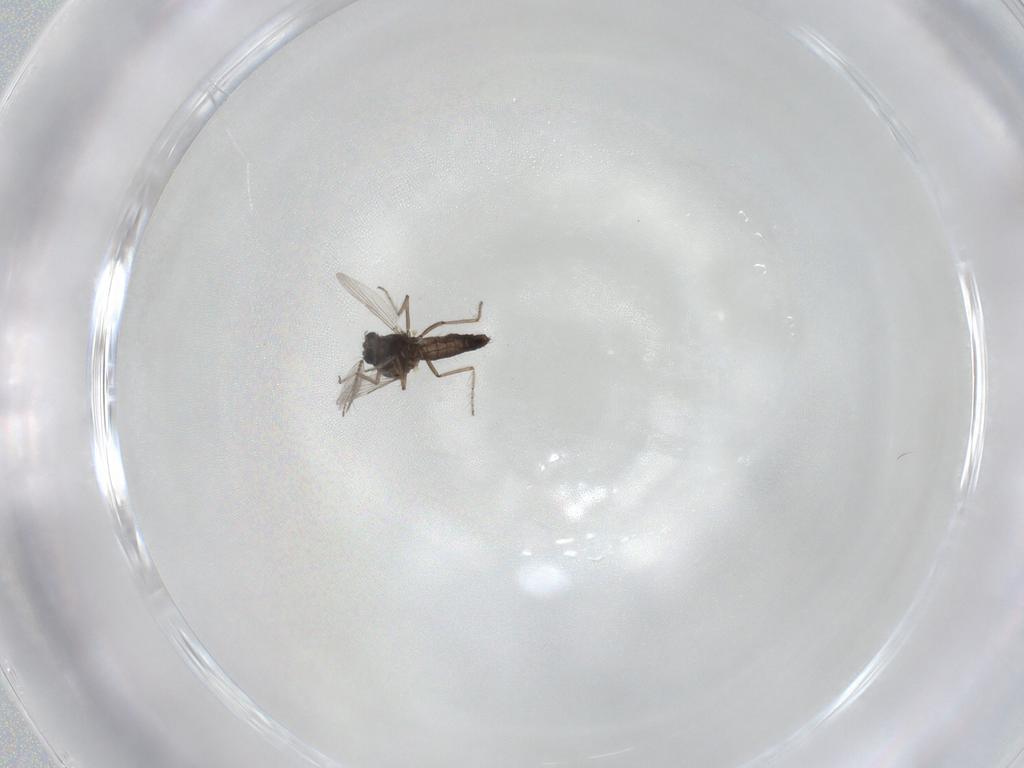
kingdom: Animalia
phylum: Arthropoda
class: Insecta
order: Diptera
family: Ceratopogonidae
